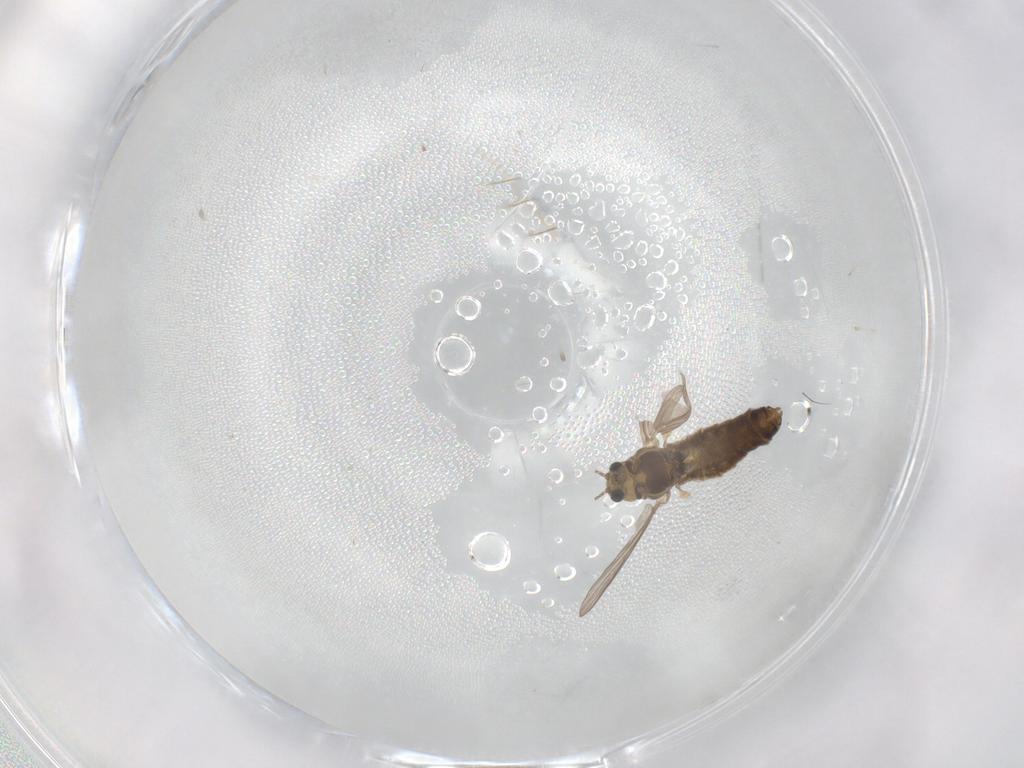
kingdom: Animalia
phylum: Arthropoda
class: Insecta
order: Diptera
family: Chironomidae
